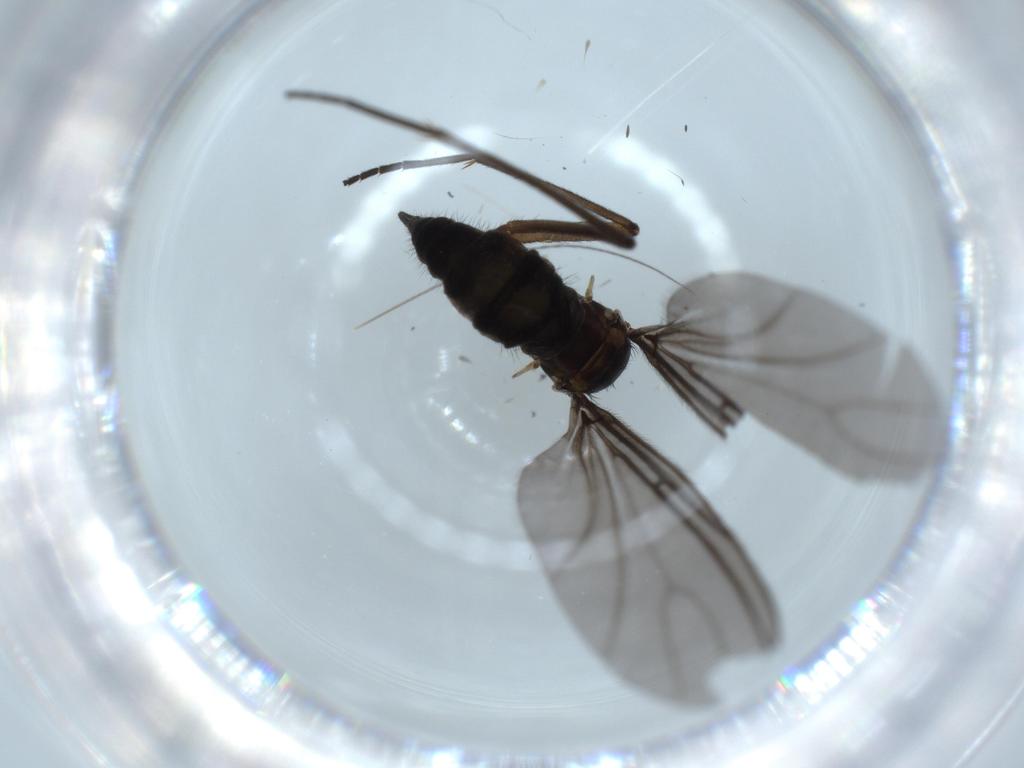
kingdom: Animalia
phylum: Arthropoda
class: Insecta
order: Diptera
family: Sciaridae
